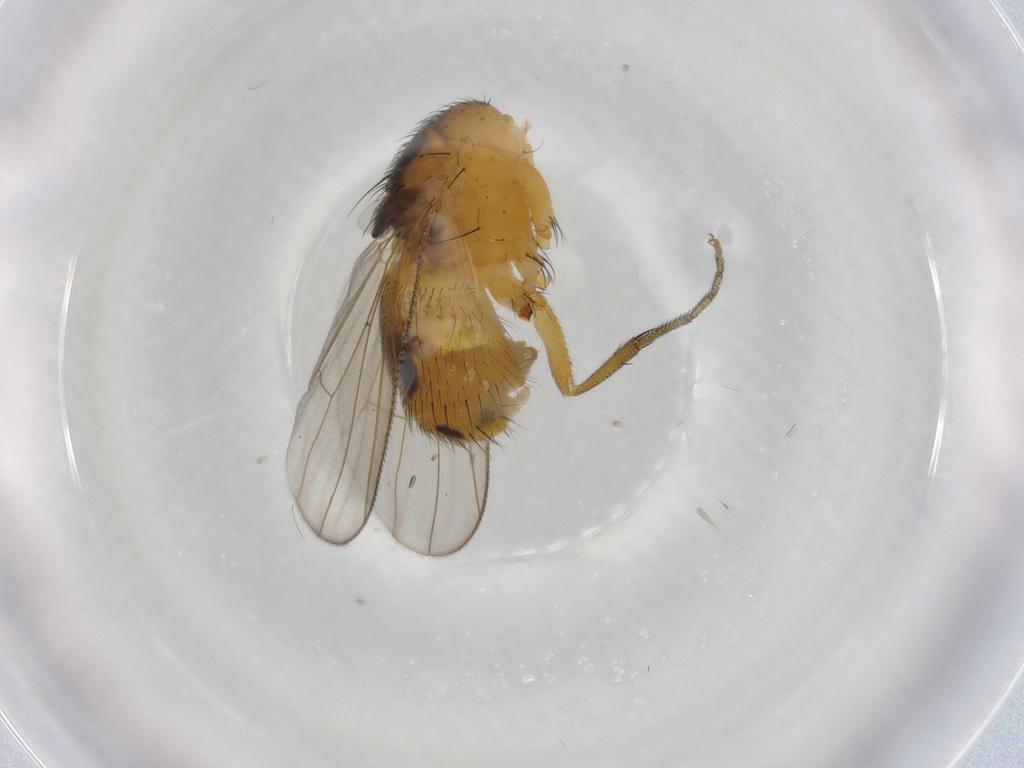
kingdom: Animalia
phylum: Arthropoda
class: Insecta
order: Diptera
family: Muscidae
